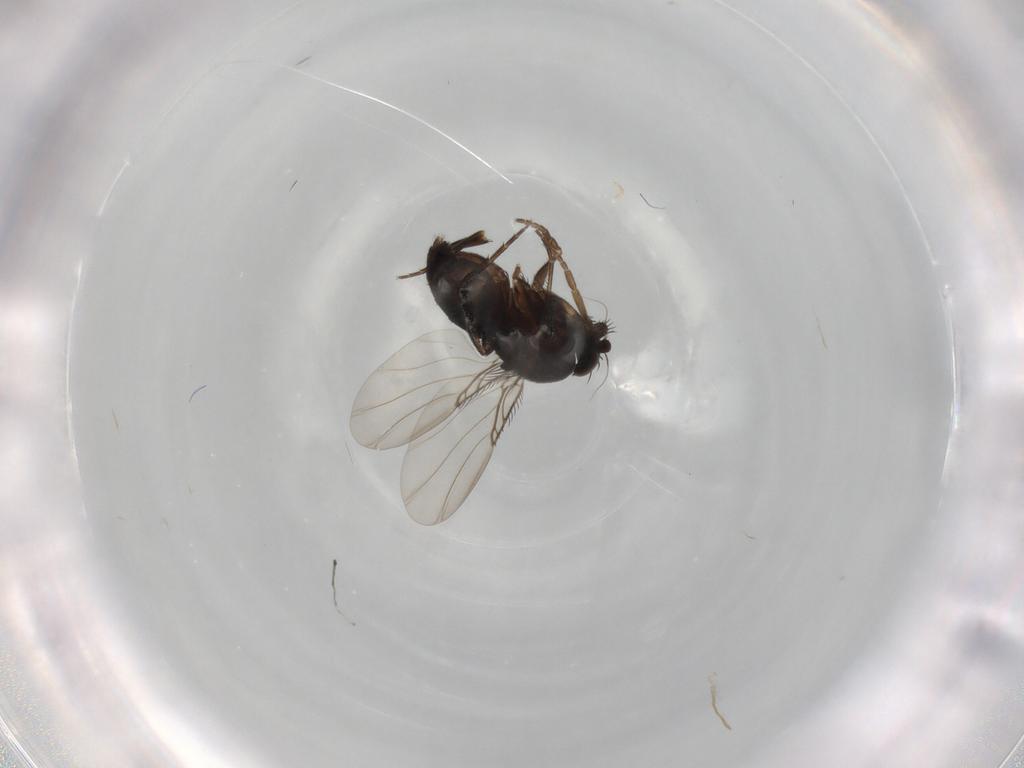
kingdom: Animalia
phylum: Arthropoda
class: Insecta
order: Diptera
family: Phoridae
